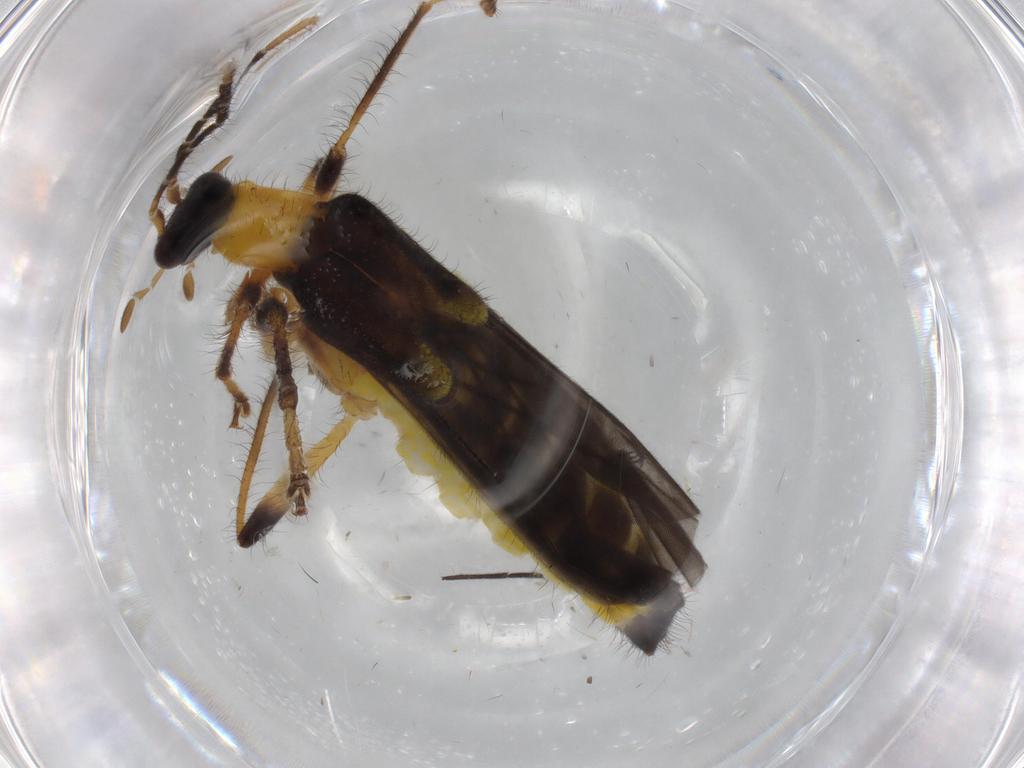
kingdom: Animalia
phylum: Arthropoda
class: Insecta
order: Coleoptera
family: Cantharidae
